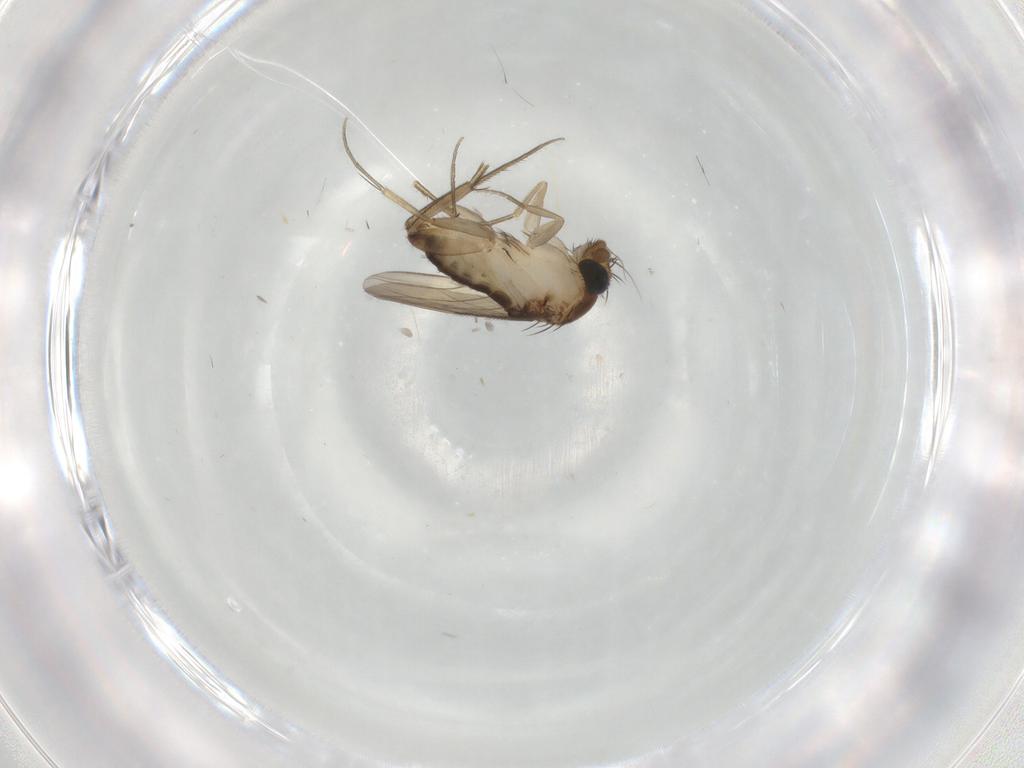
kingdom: Animalia
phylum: Arthropoda
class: Insecta
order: Diptera
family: Phoridae
